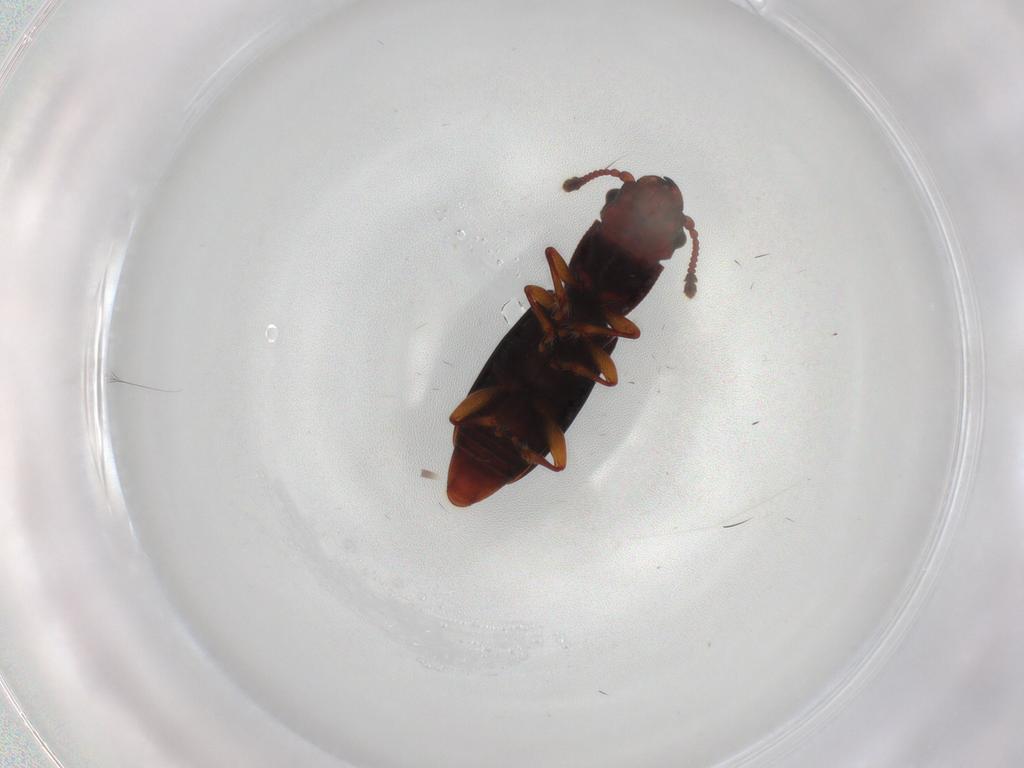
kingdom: Animalia
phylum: Arthropoda
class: Insecta
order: Coleoptera
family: Monotomidae
